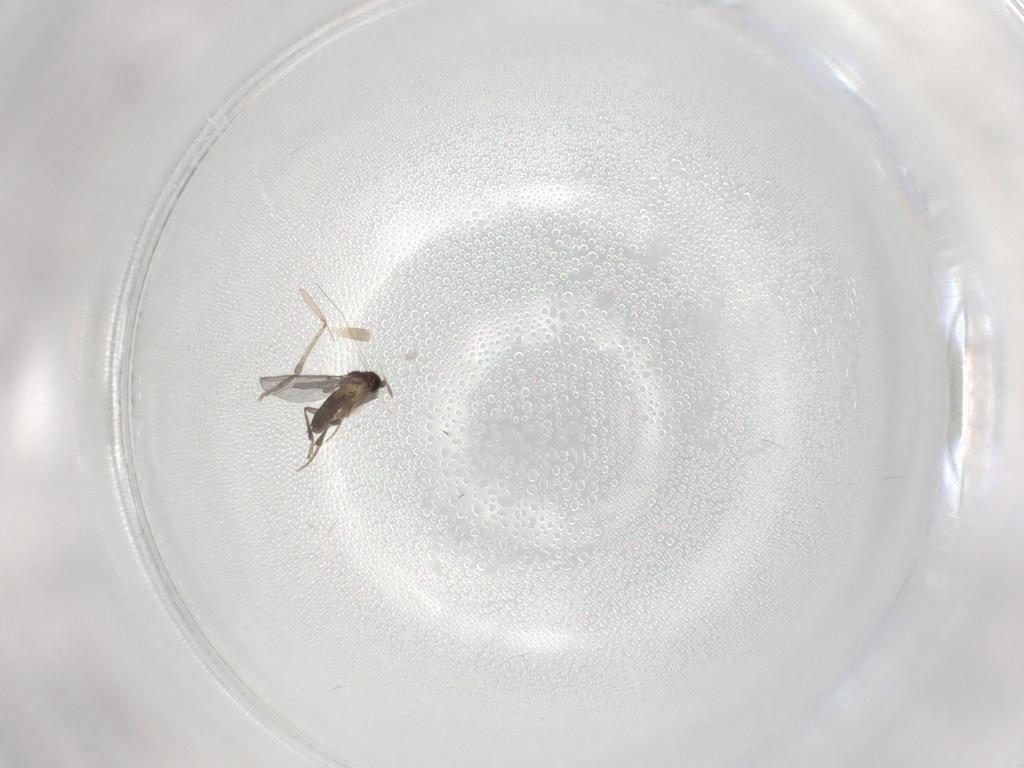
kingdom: Animalia
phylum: Arthropoda
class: Insecta
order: Diptera
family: Phoridae
